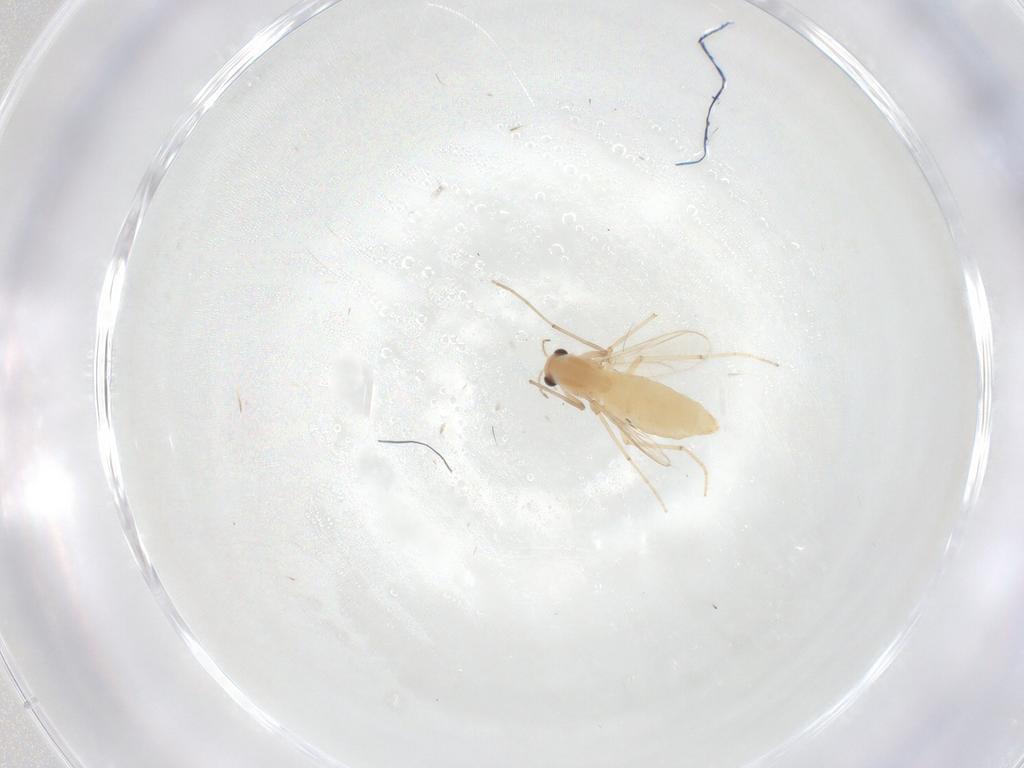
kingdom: Animalia
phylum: Arthropoda
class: Insecta
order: Diptera
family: Chironomidae
